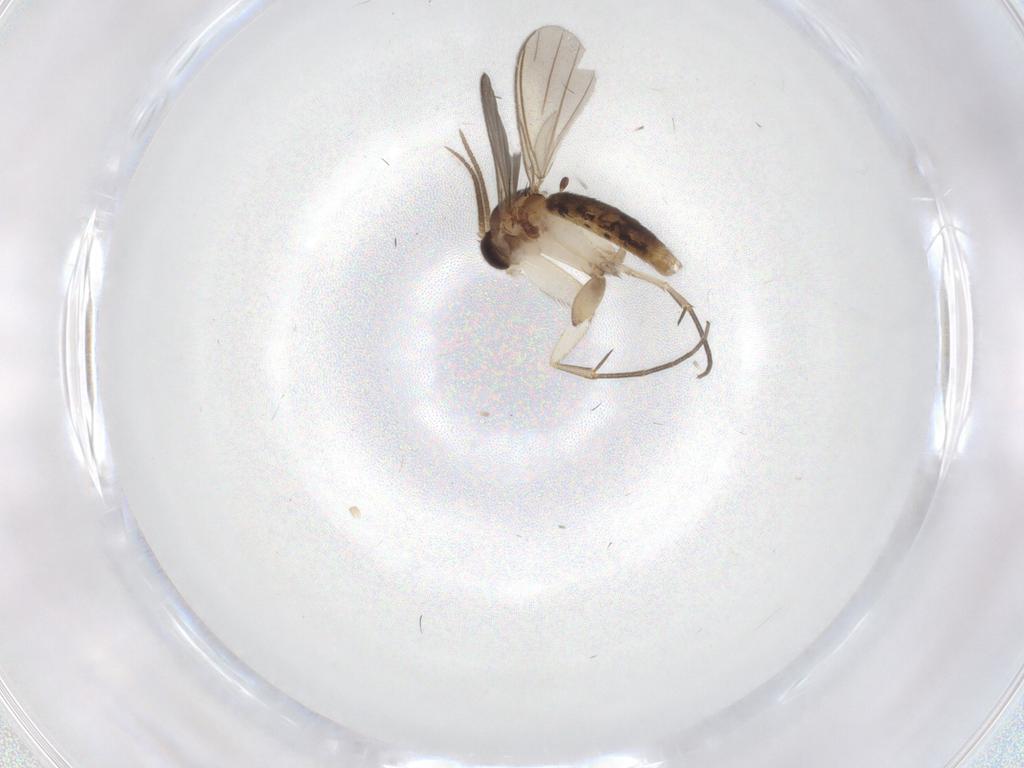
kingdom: Animalia
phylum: Arthropoda
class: Insecta
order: Diptera
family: Mycetophilidae
